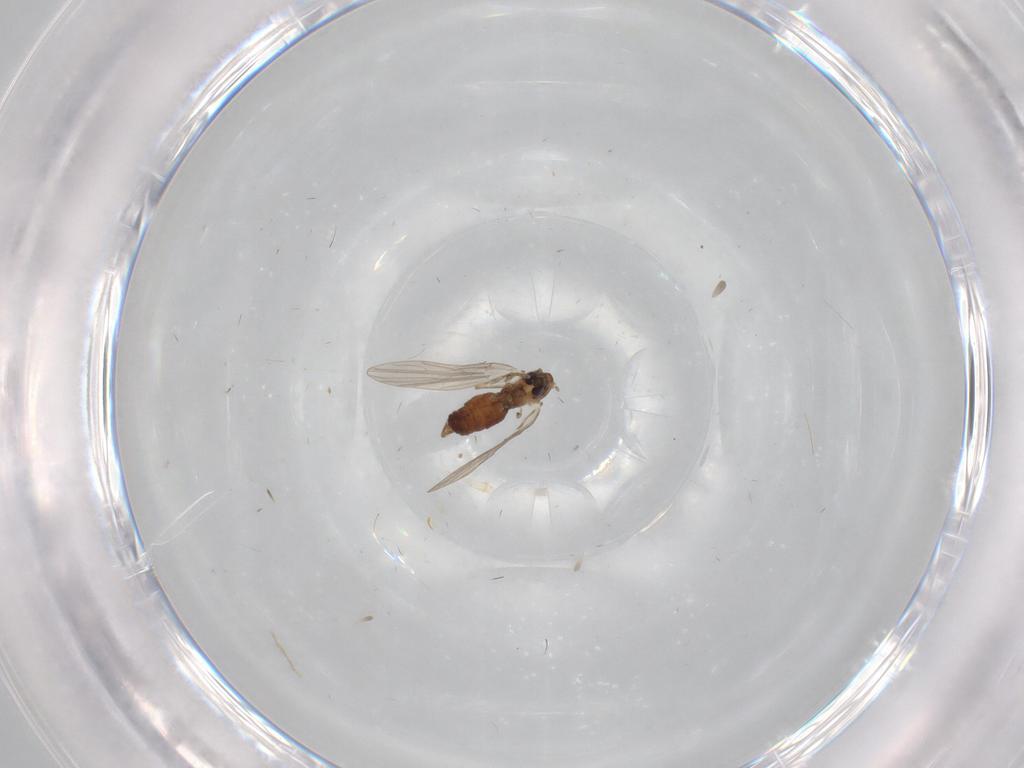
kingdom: Animalia
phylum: Arthropoda
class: Insecta
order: Diptera
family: Psychodidae
